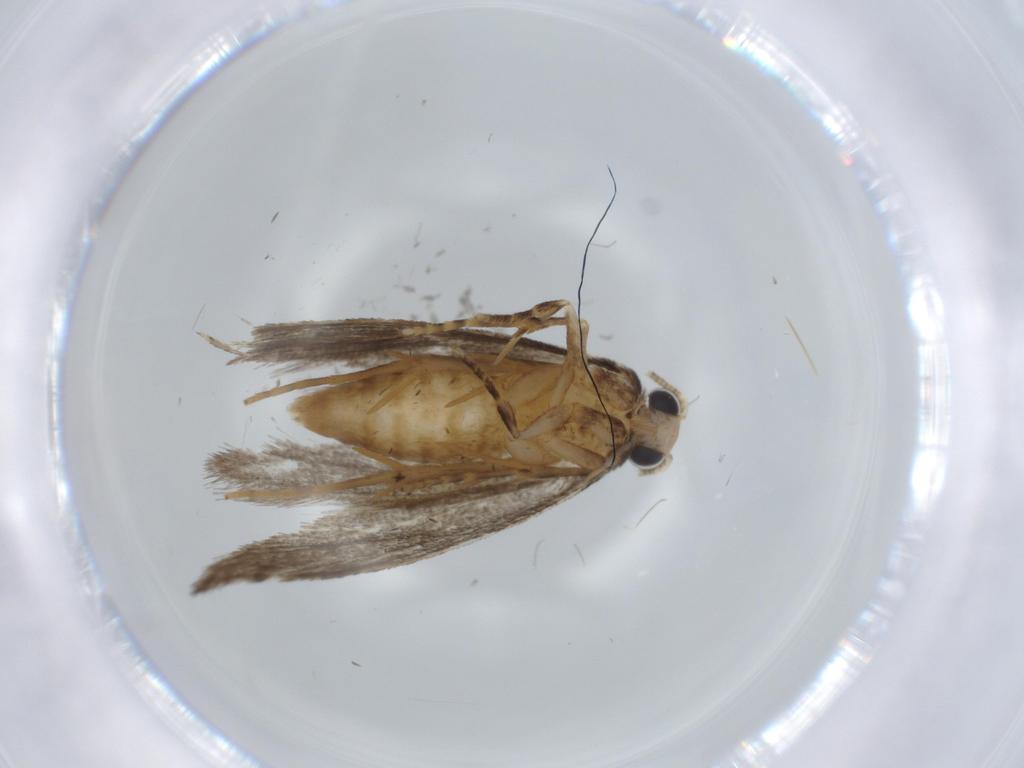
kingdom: Animalia
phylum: Arthropoda
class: Insecta
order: Lepidoptera
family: Tineidae
